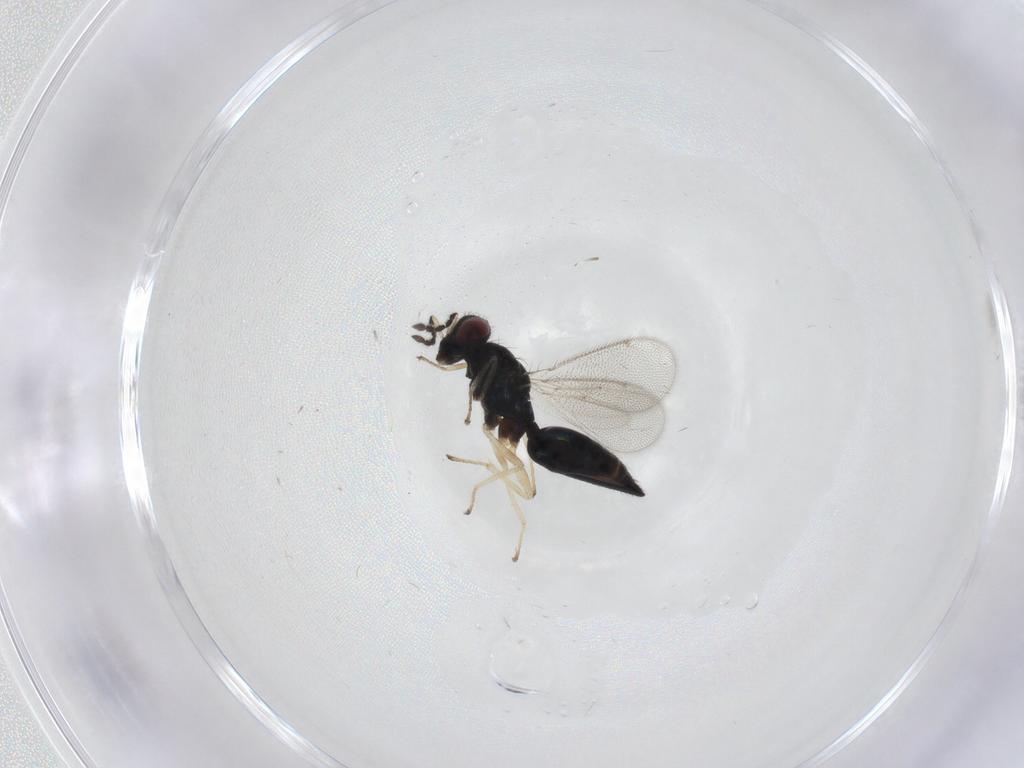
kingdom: Animalia
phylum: Arthropoda
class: Insecta
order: Hymenoptera
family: Eulophidae
